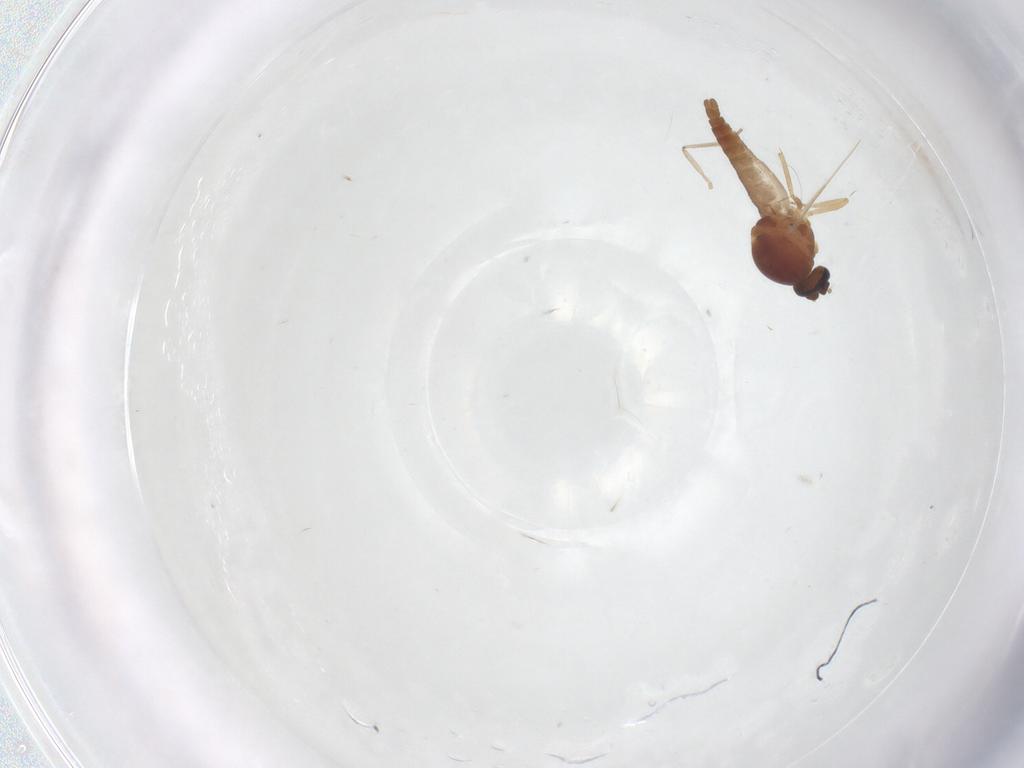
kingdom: Animalia
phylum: Arthropoda
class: Insecta
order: Diptera
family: Ceratopogonidae
